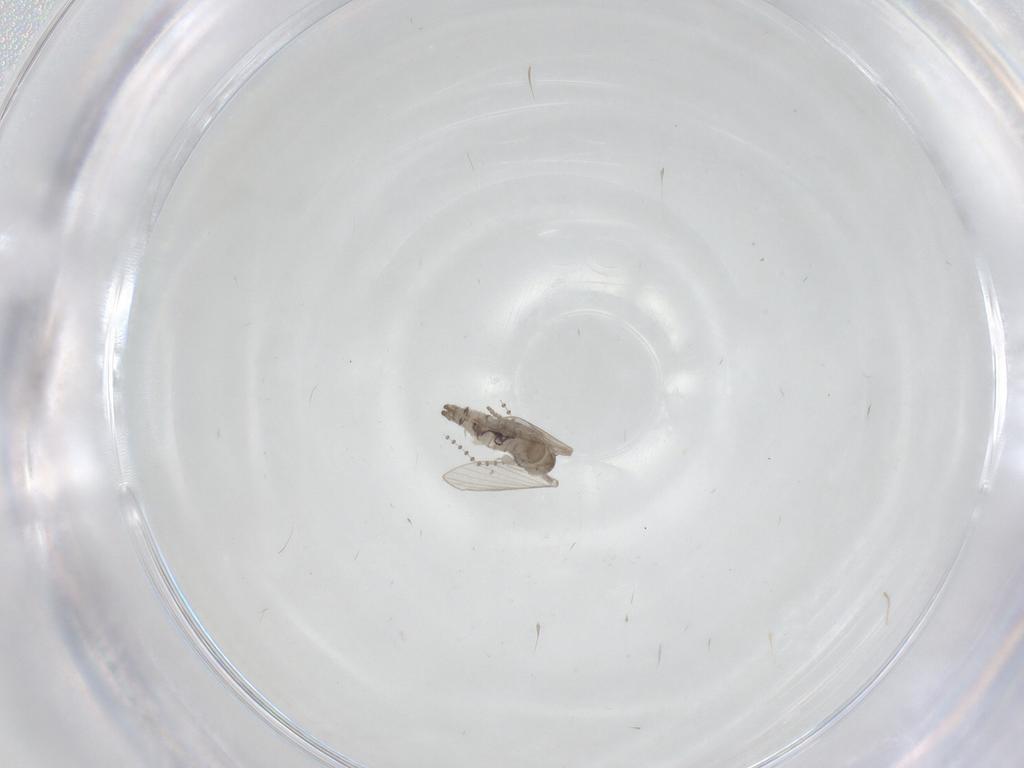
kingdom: Animalia
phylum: Arthropoda
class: Insecta
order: Diptera
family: Psychodidae
